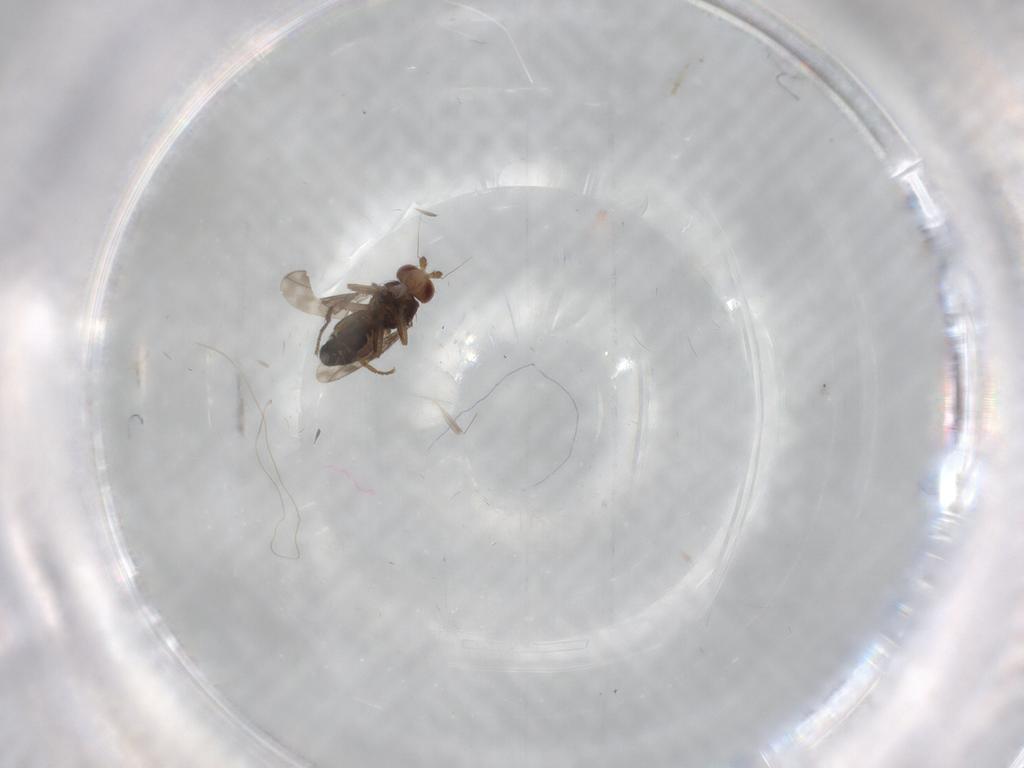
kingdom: Animalia
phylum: Arthropoda
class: Insecta
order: Diptera
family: Sphaeroceridae
